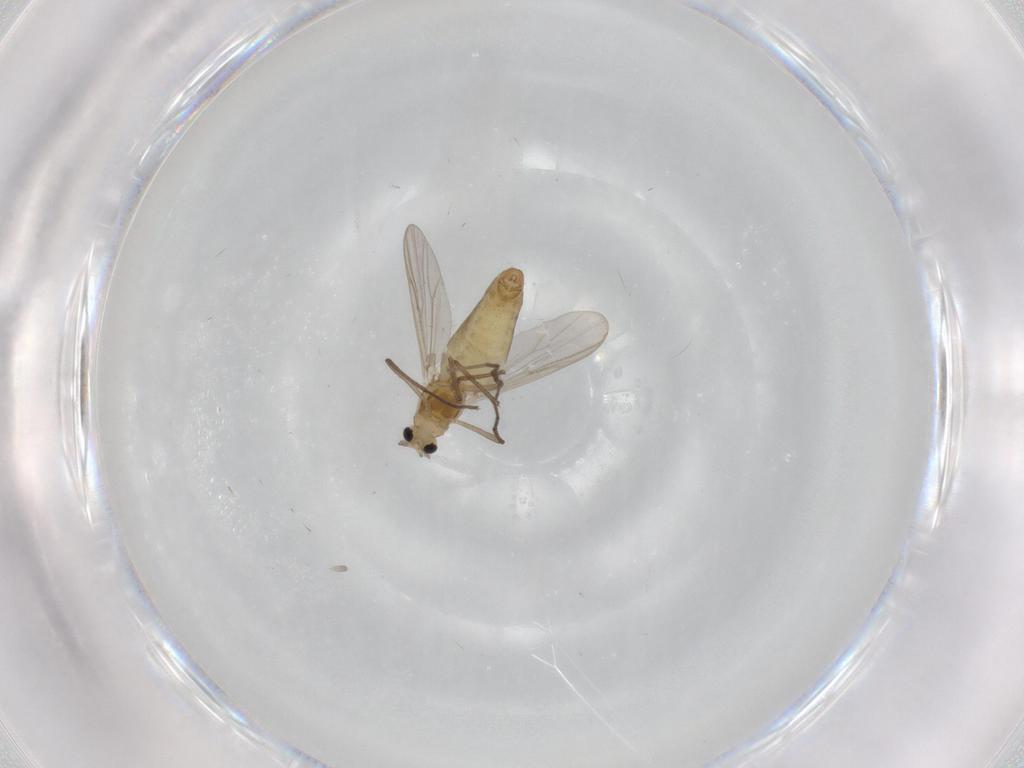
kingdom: Animalia
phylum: Arthropoda
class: Insecta
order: Diptera
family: Chironomidae
